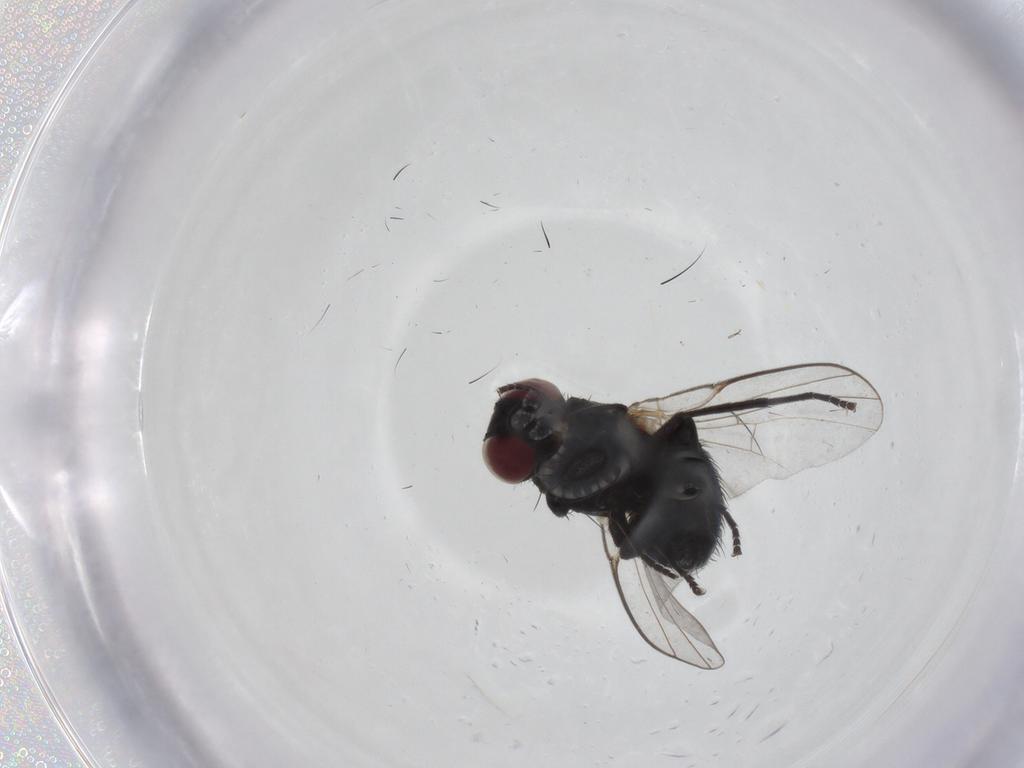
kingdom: Animalia
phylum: Arthropoda
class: Insecta
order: Diptera
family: Agromyzidae
